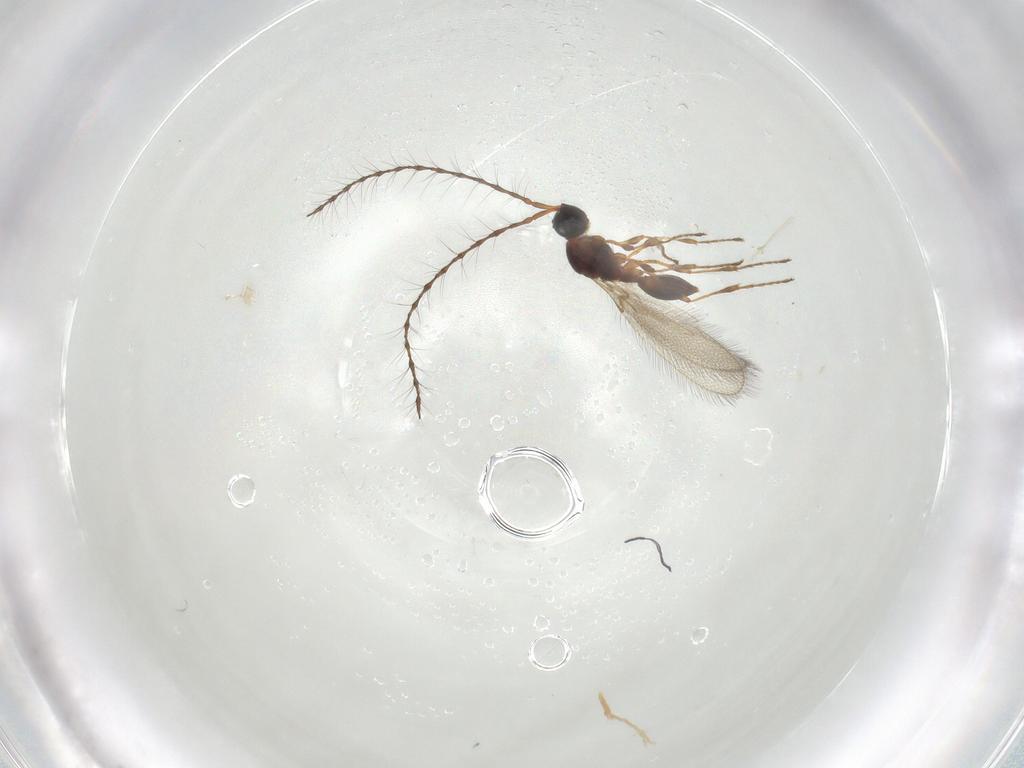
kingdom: Animalia
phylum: Arthropoda
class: Insecta
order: Hymenoptera
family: Diapriidae
